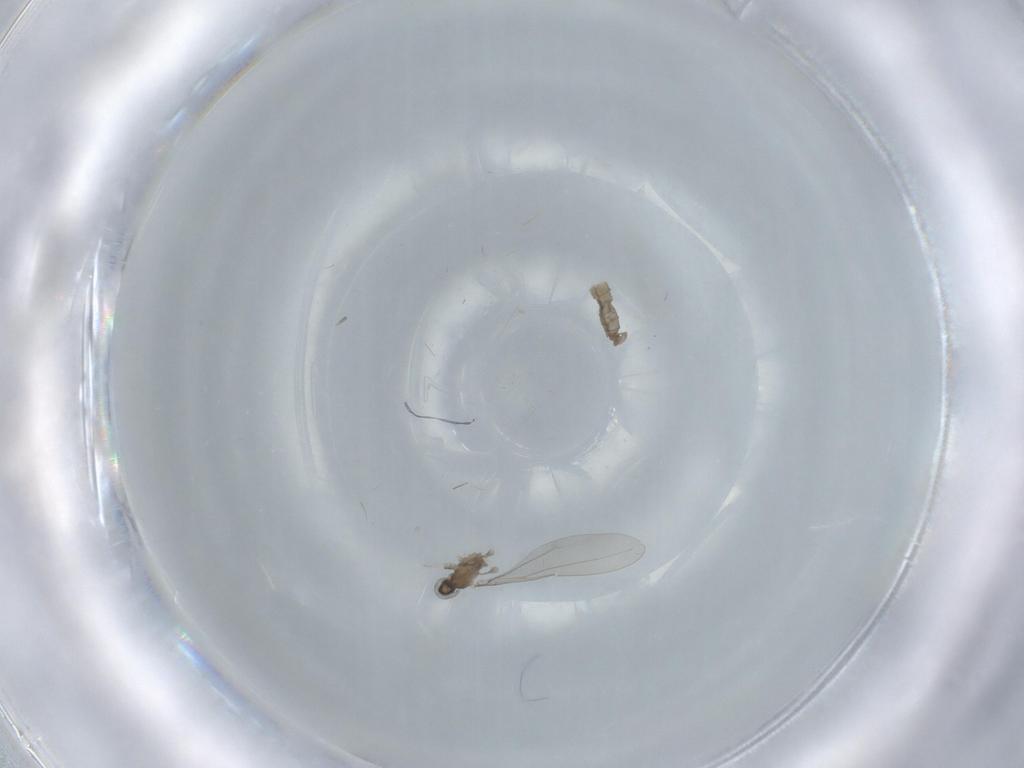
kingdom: Animalia
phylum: Arthropoda
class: Insecta
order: Diptera
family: Cecidomyiidae
